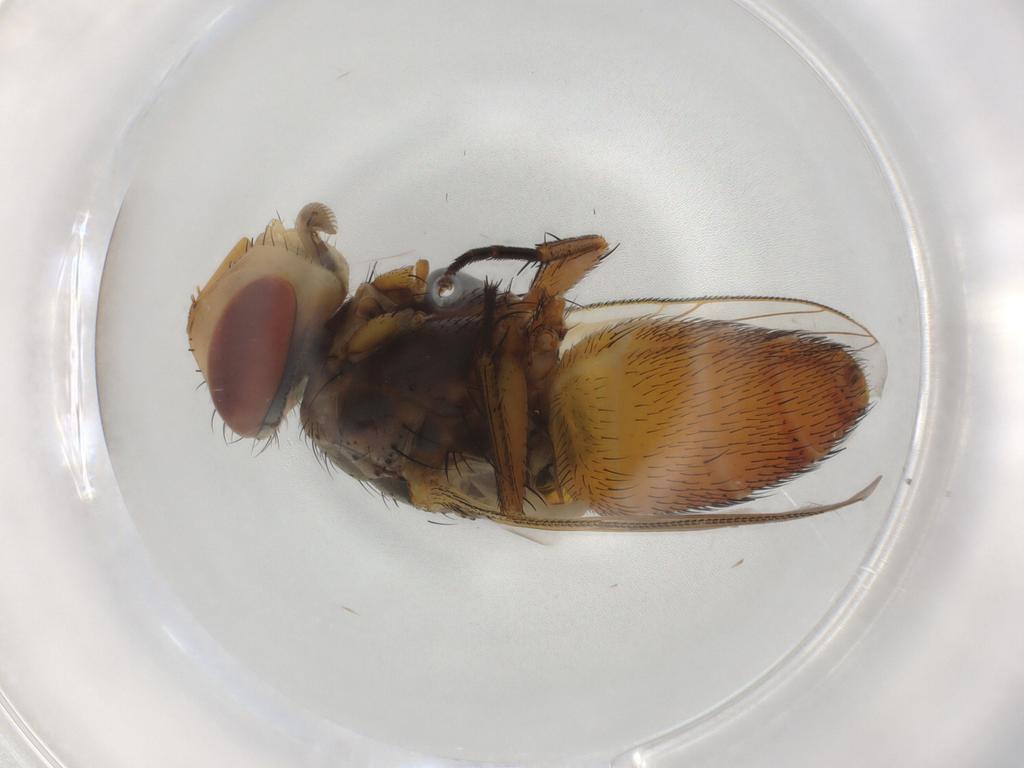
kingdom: Animalia
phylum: Arthropoda
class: Insecta
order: Diptera
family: Sarcophagidae
